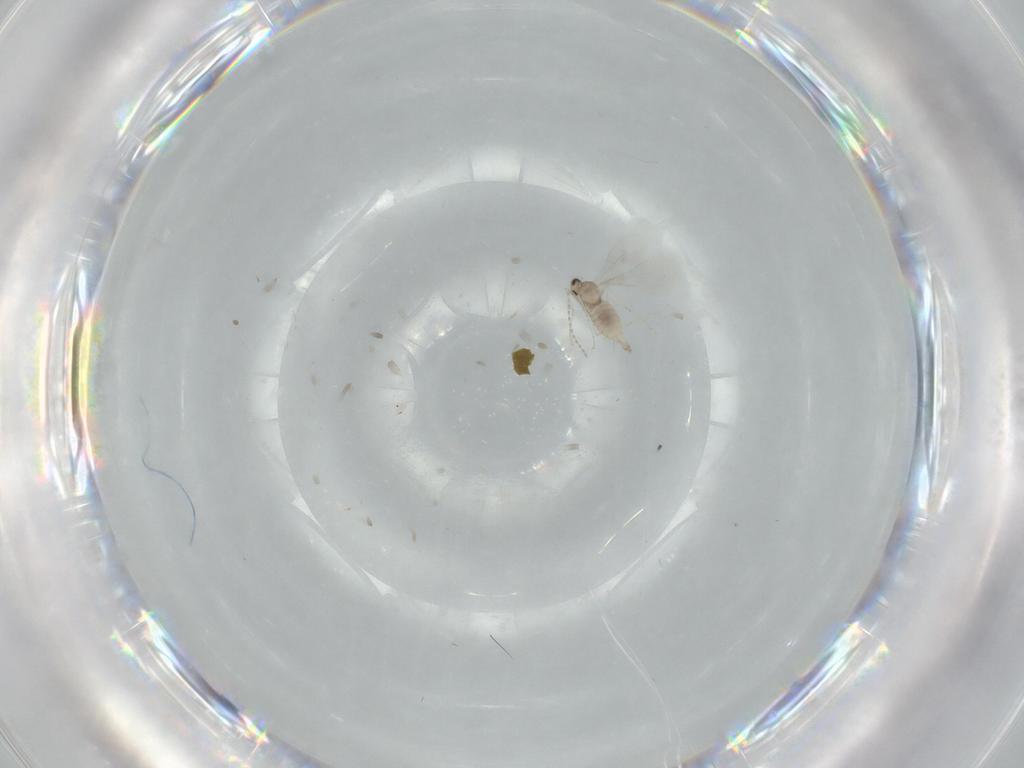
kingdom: Animalia
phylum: Arthropoda
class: Insecta
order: Diptera
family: Cecidomyiidae
